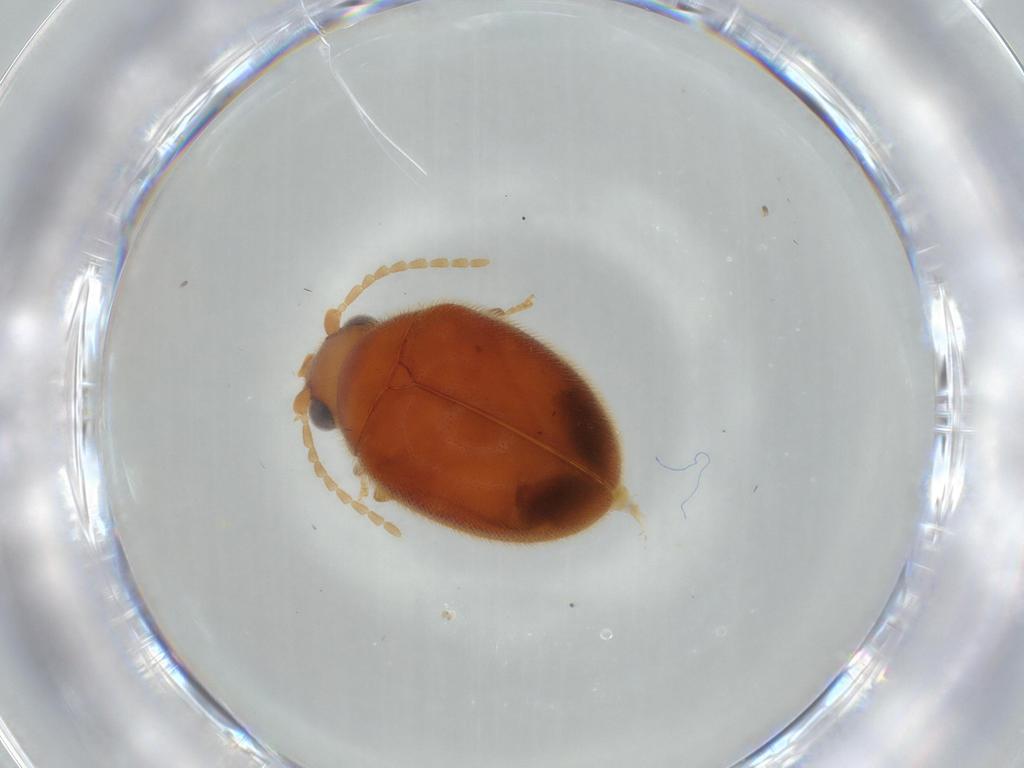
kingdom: Animalia
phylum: Arthropoda
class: Insecta
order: Coleoptera
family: Scirtidae
